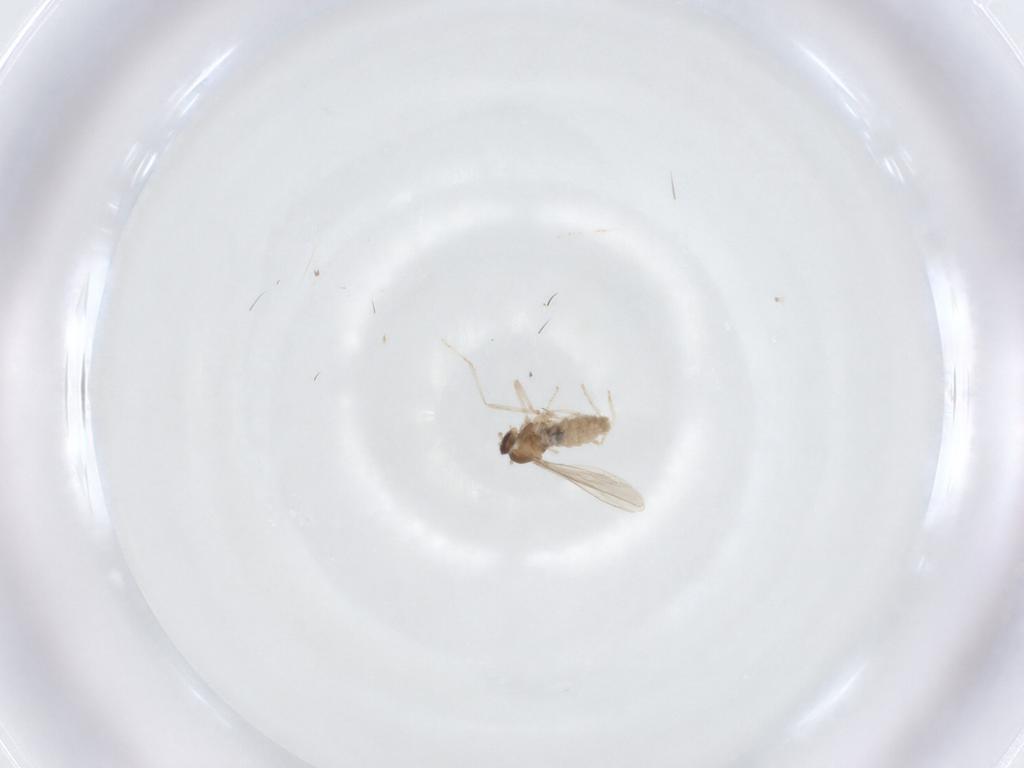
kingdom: Animalia
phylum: Arthropoda
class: Insecta
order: Diptera
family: Cecidomyiidae
